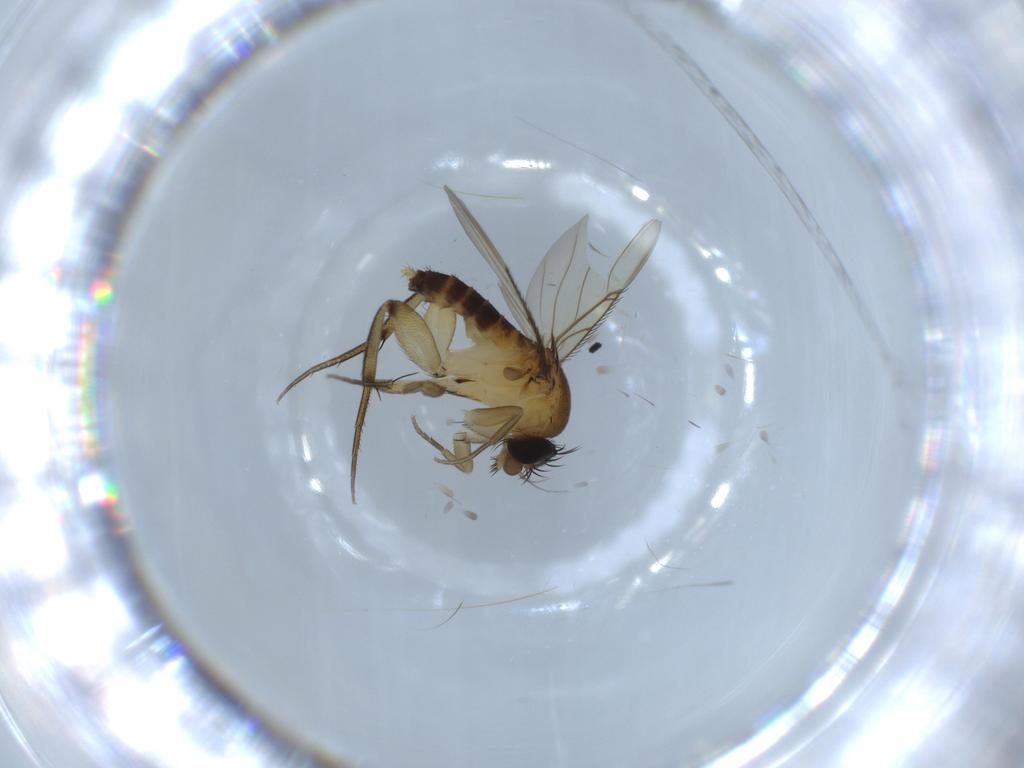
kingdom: Animalia
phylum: Arthropoda
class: Insecta
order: Diptera
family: Phoridae
